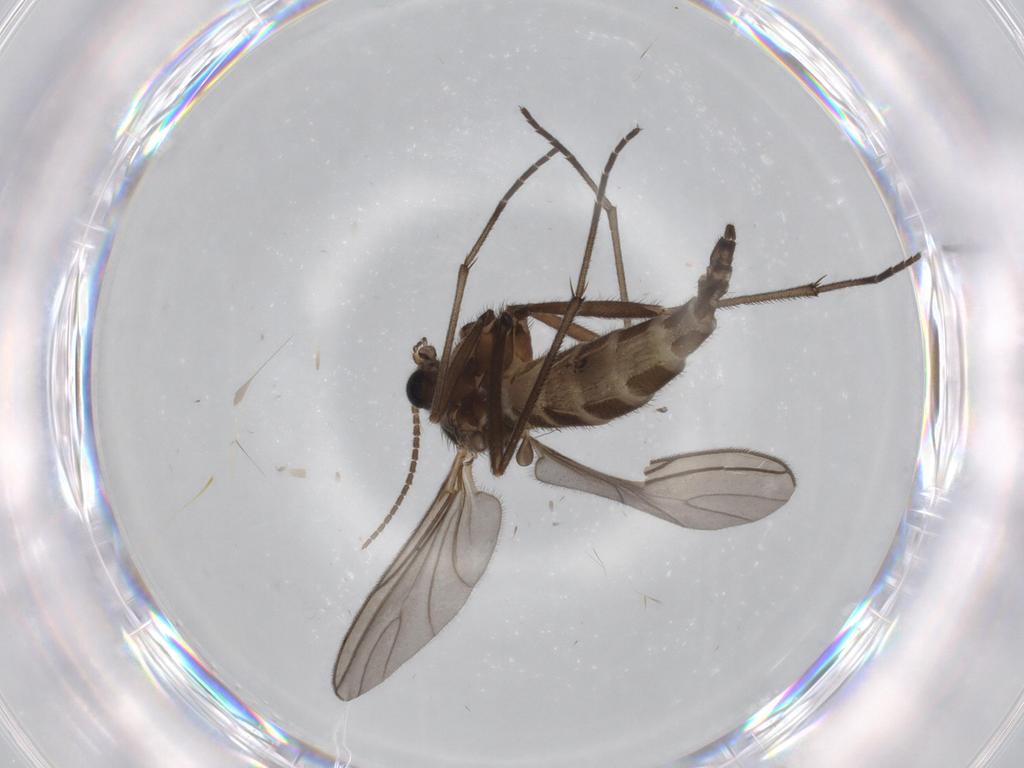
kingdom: Animalia
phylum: Arthropoda
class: Insecta
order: Diptera
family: Sciaridae
